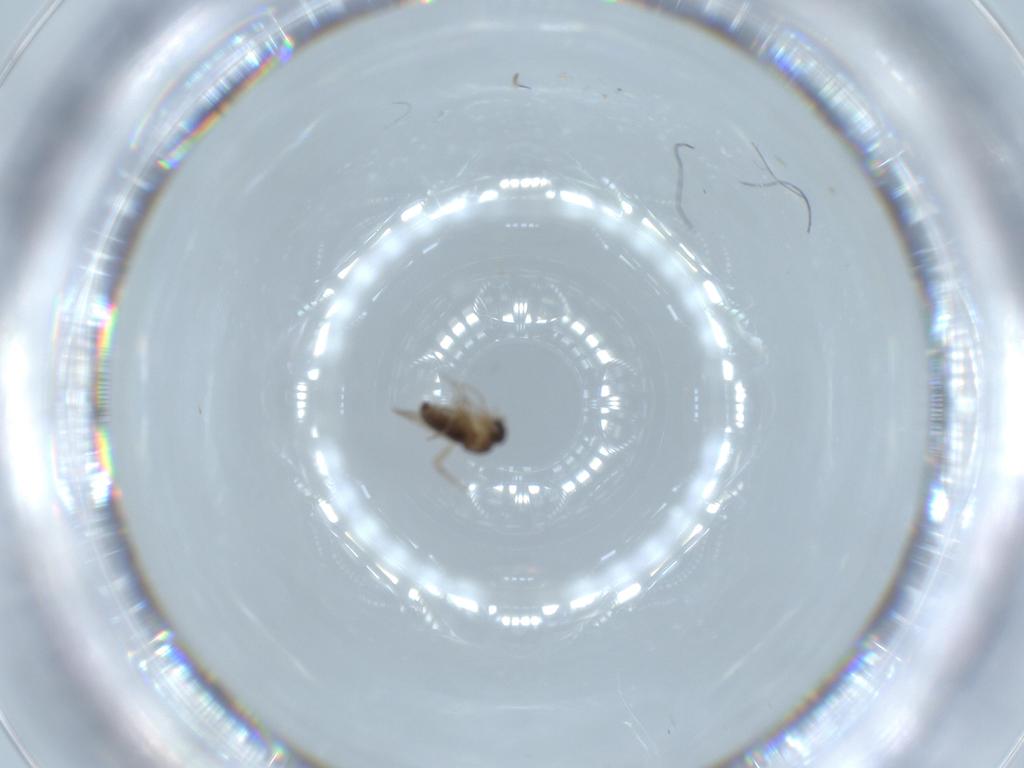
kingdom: Animalia
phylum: Arthropoda
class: Insecta
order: Diptera
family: Phoridae
